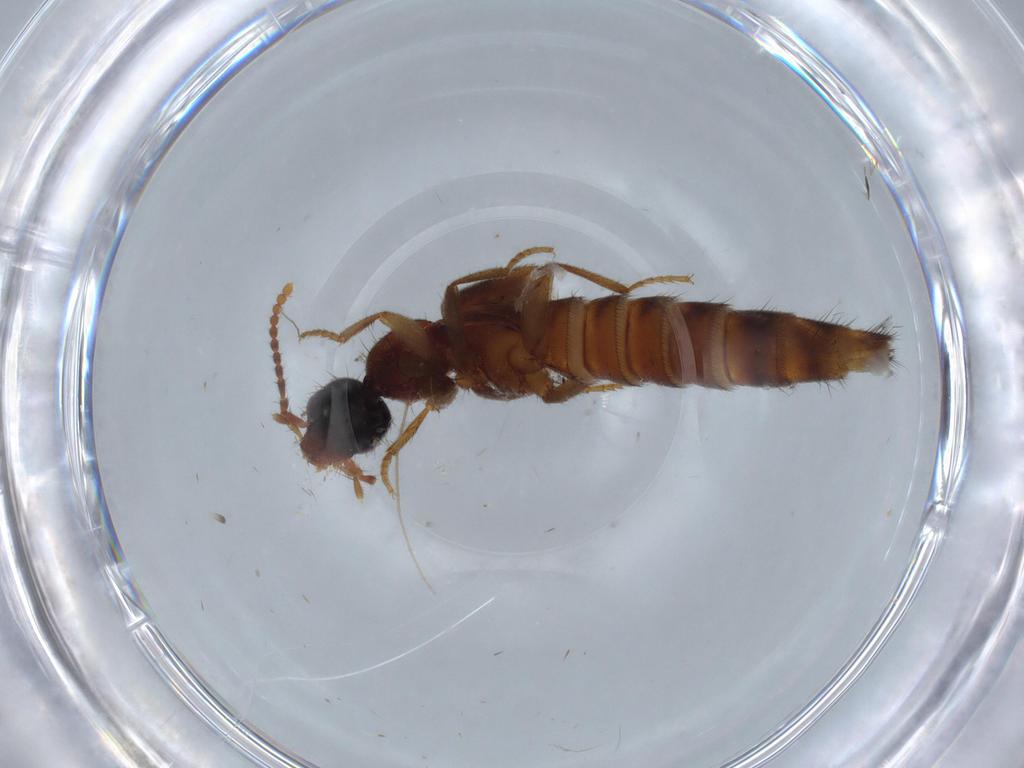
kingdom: Animalia
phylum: Arthropoda
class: Insecta
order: Coleoptera
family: Staphylinidae
